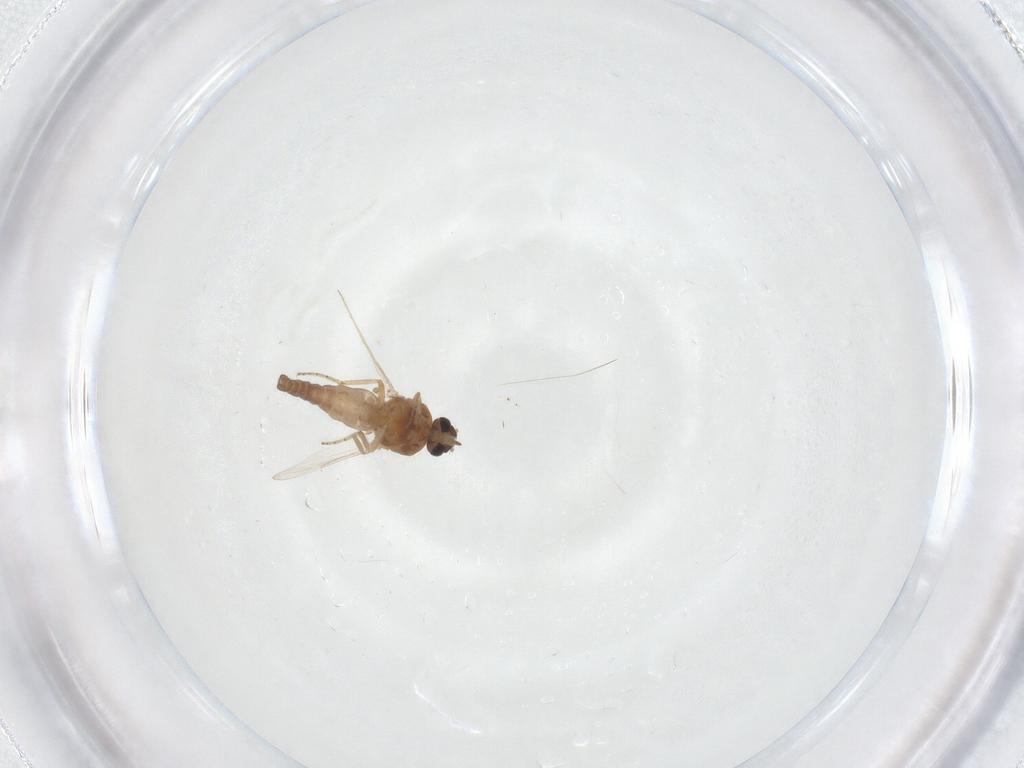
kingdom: Animalia
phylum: Arthropoda
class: Insecta
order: Diptera
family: Ceratopogonidae
